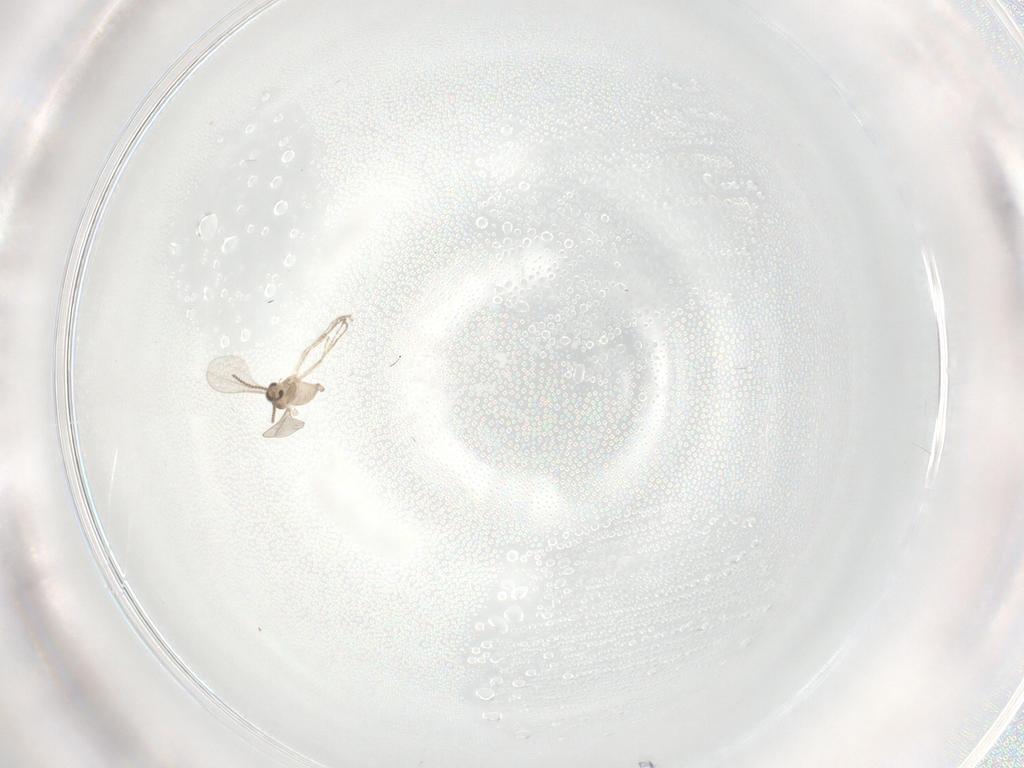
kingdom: Animalia
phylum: Arthropoda
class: Insecta
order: Diptera
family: Cecidomyiidae
